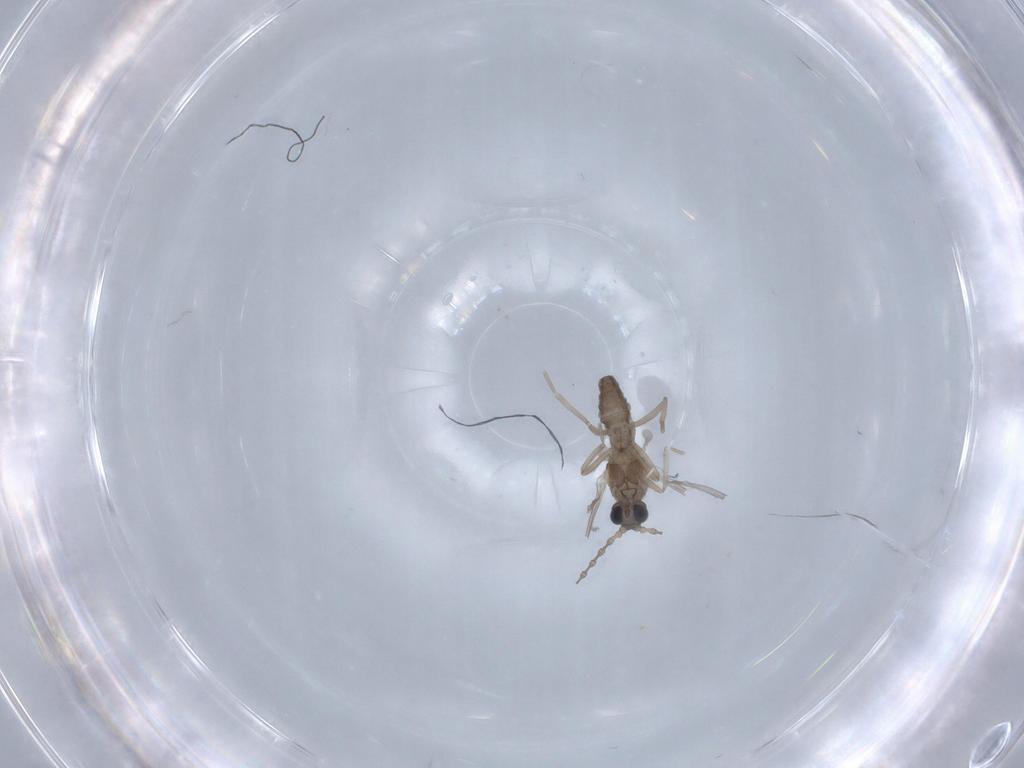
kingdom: Animalia
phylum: Arthropoda
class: Insecta
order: Diptera
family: Cecidomyiidae
